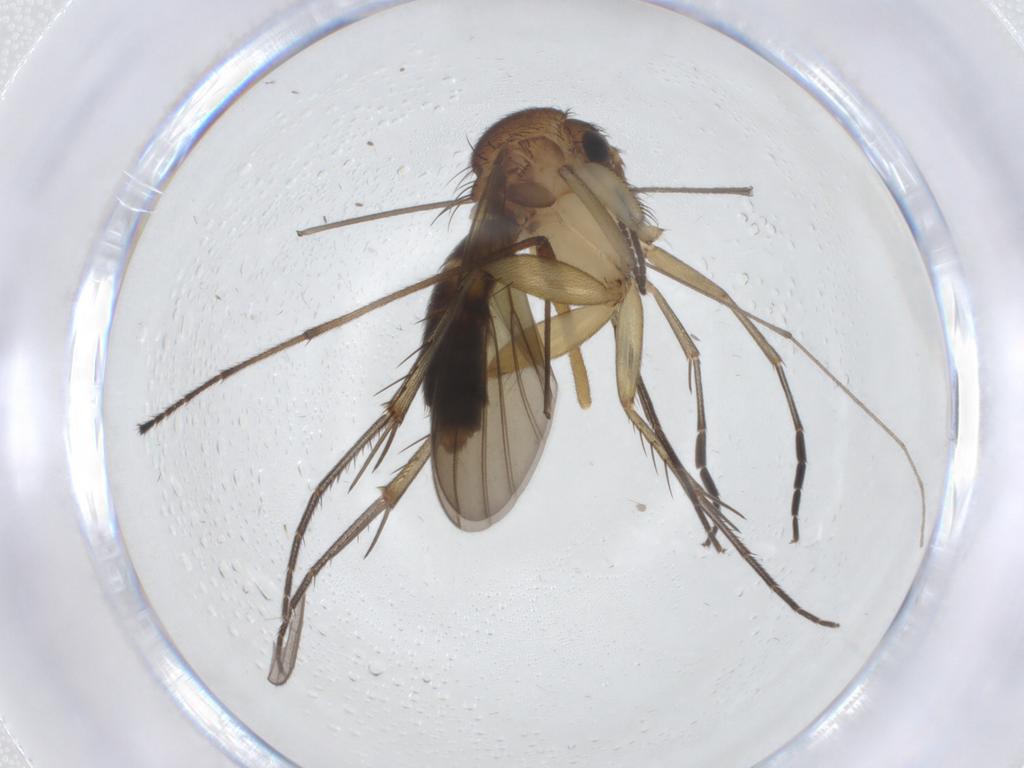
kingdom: Animalia
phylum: Arthropoda
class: Insecta
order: Diptera
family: Mycetophilidae
